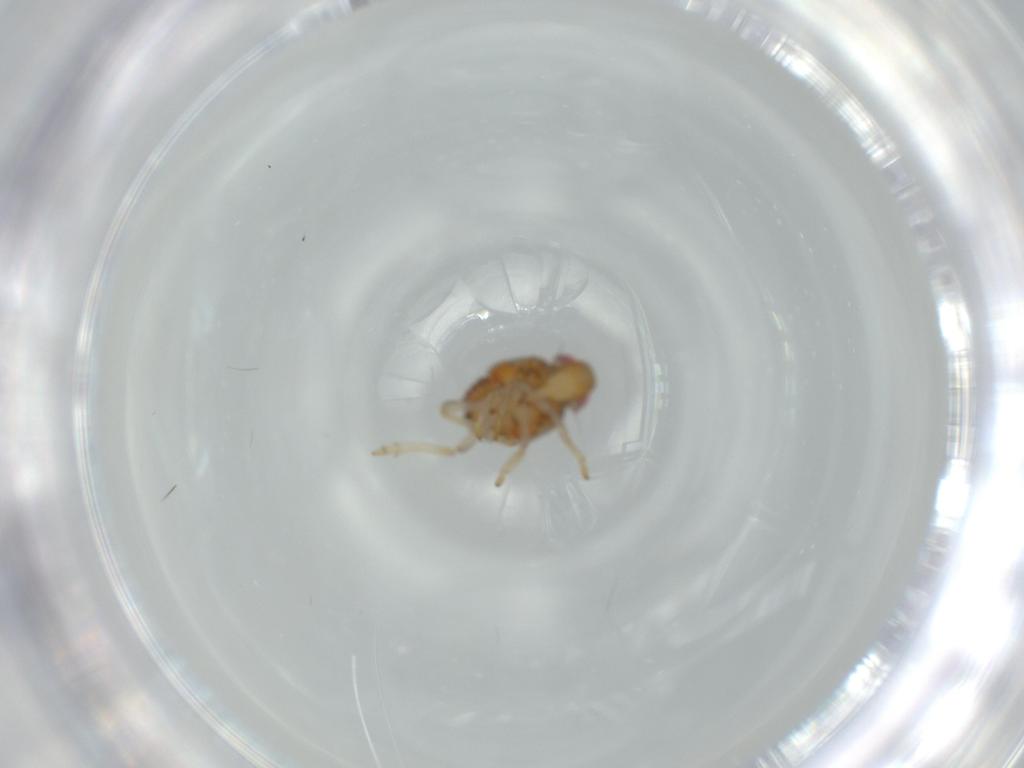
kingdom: Animalia
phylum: Arthropoda
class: Insecta
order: Hemiptera
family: Issidae
